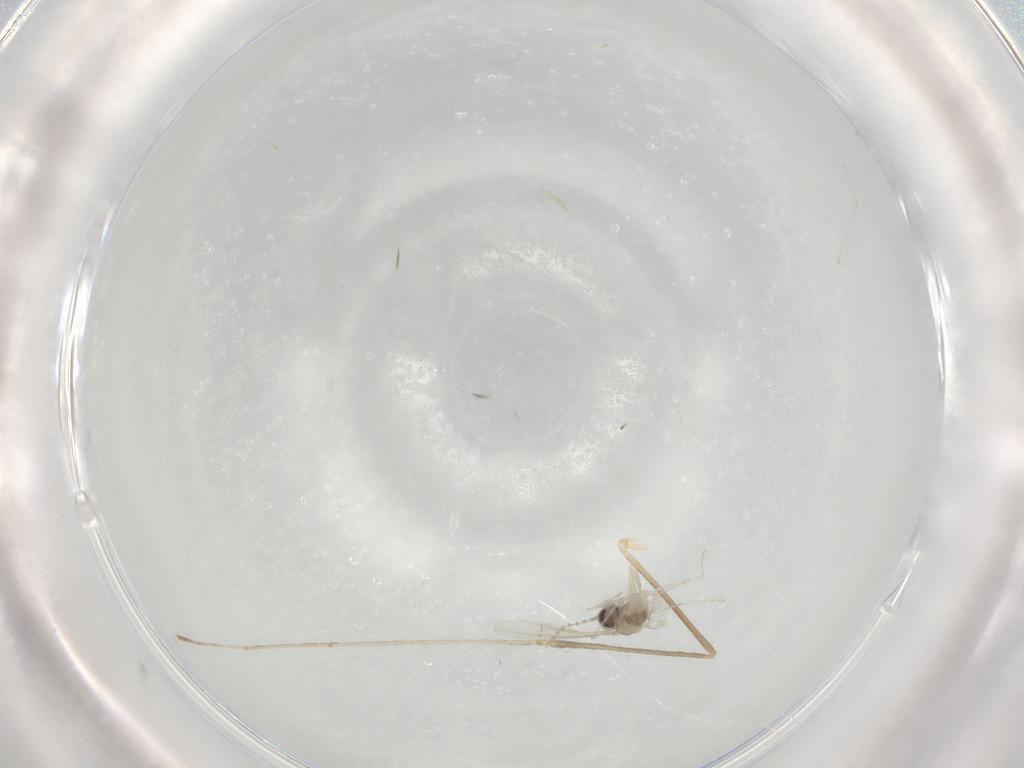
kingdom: Animalia
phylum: Arthropoda
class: Insecta
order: Diptera
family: Cecidomyiidae
